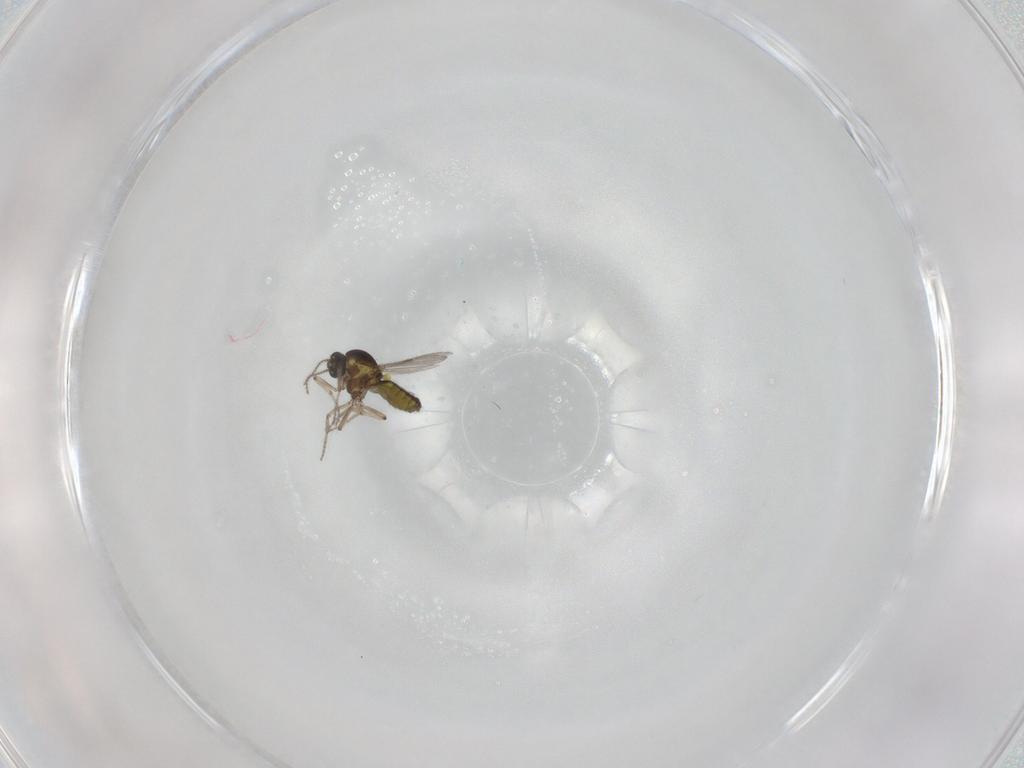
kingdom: Animalia
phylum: Arthropoda
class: Insecta
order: Diptera
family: Ceratopogonidae
